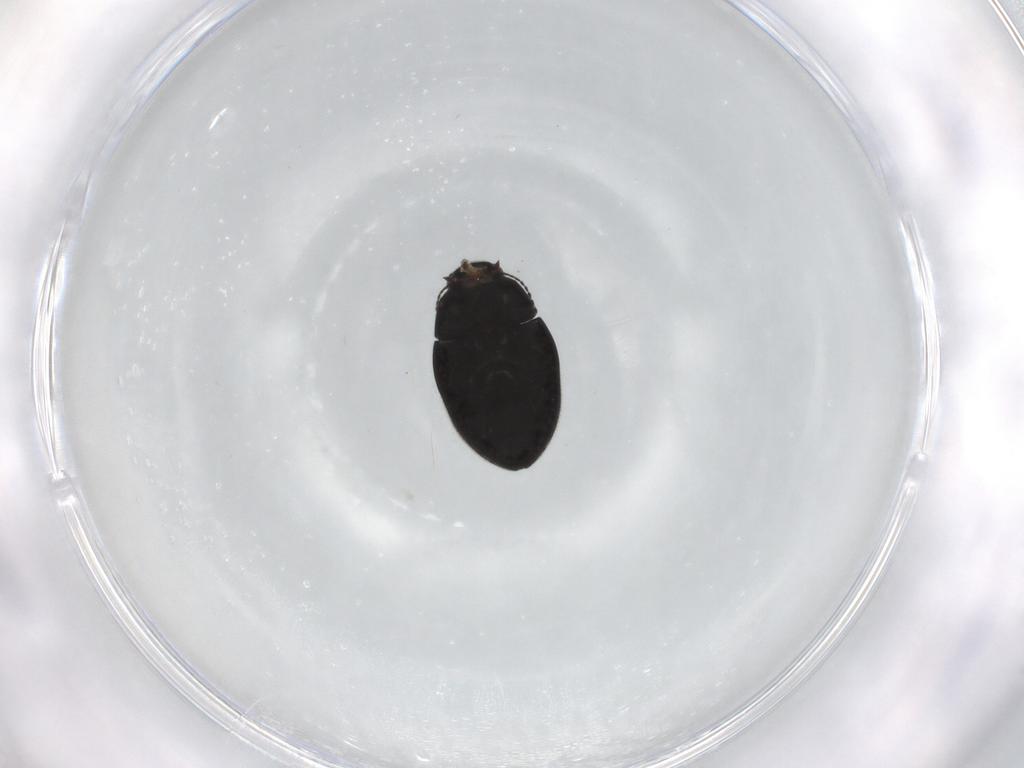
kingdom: Animalia
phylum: Arthropoda
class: Insecta
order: Coleoptera
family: Limnichidae
